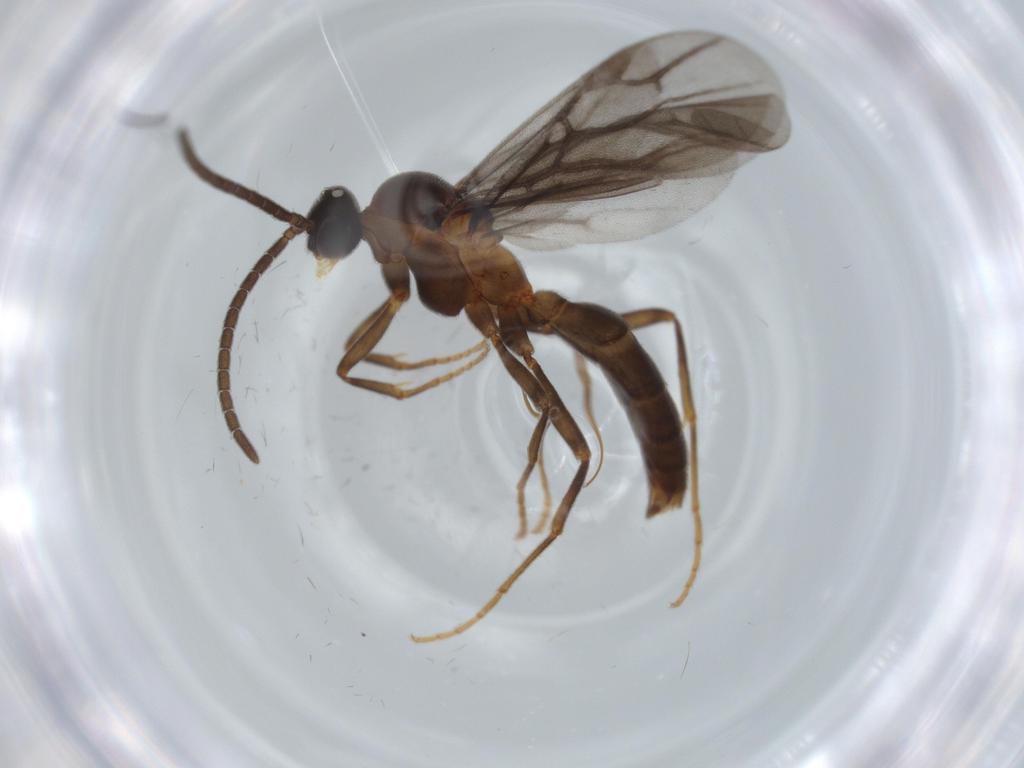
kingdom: Animalia
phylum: Arthropoda
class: Insecta
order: Hymenoptera
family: Formicidae
